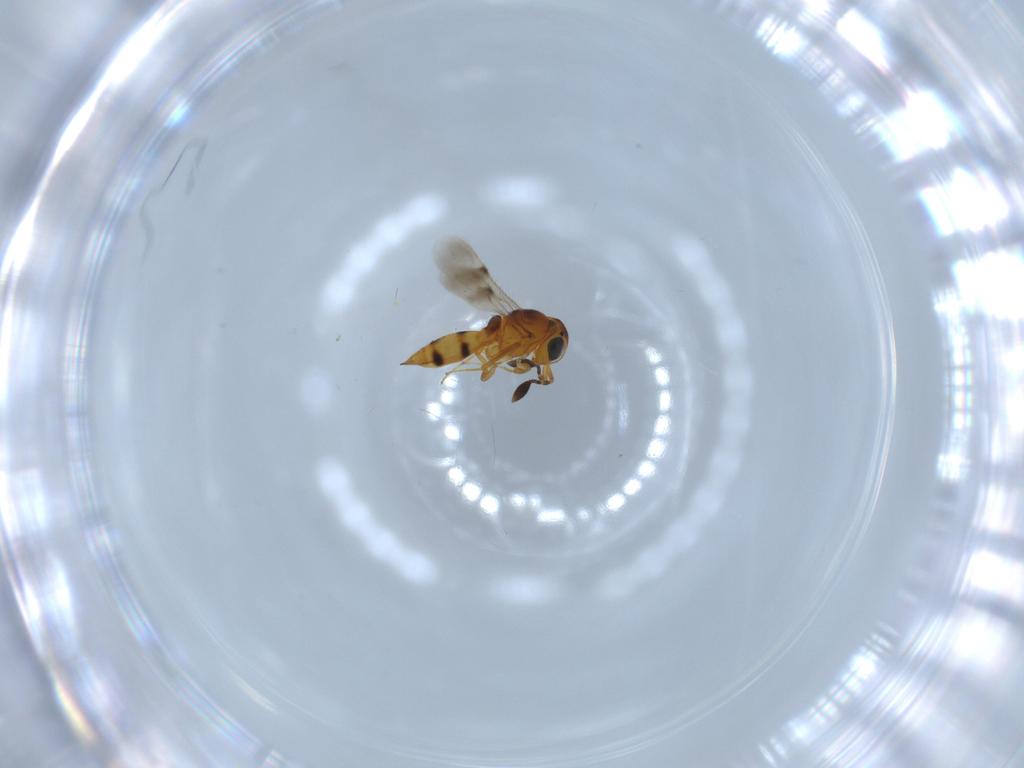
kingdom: Animalia
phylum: Arthropoda
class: Insecta
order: Hymenoptera
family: Scelionidae
